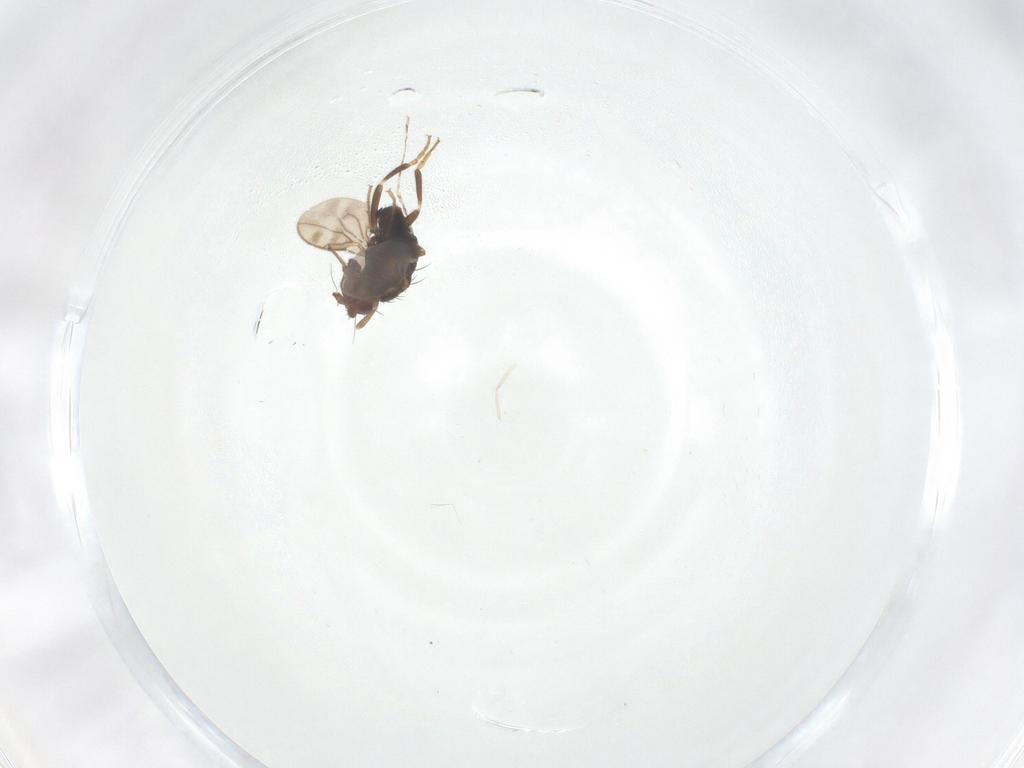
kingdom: Animalia
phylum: Arthropoda
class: Insecta
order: Diptera
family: Sphaeroceridae
